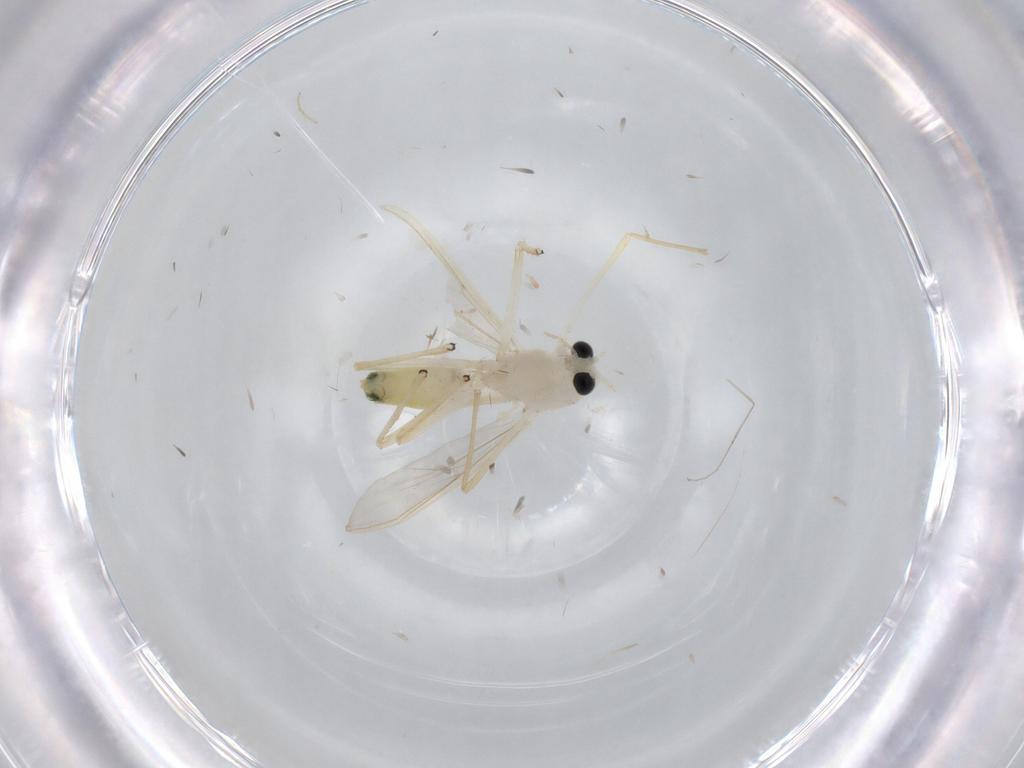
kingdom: Animalia
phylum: Arthropoda
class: Insecta
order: Diptera
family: Chironomidae
